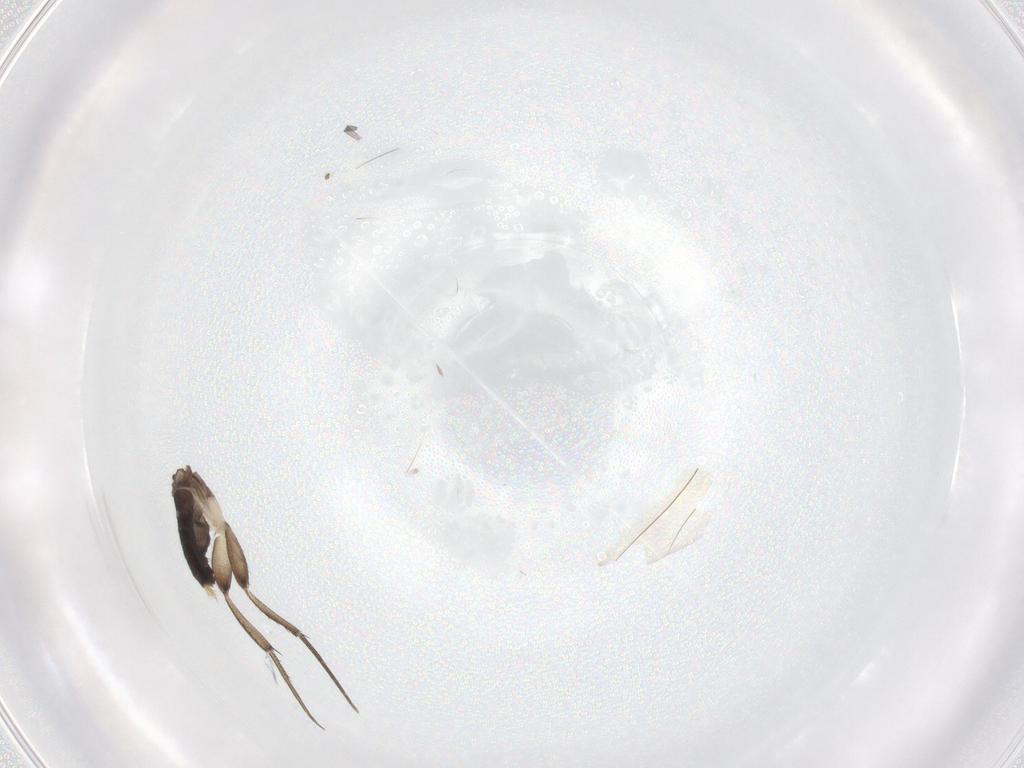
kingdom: Animalia
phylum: Arthropoda
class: Insecta
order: Diptera
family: Phoridae
